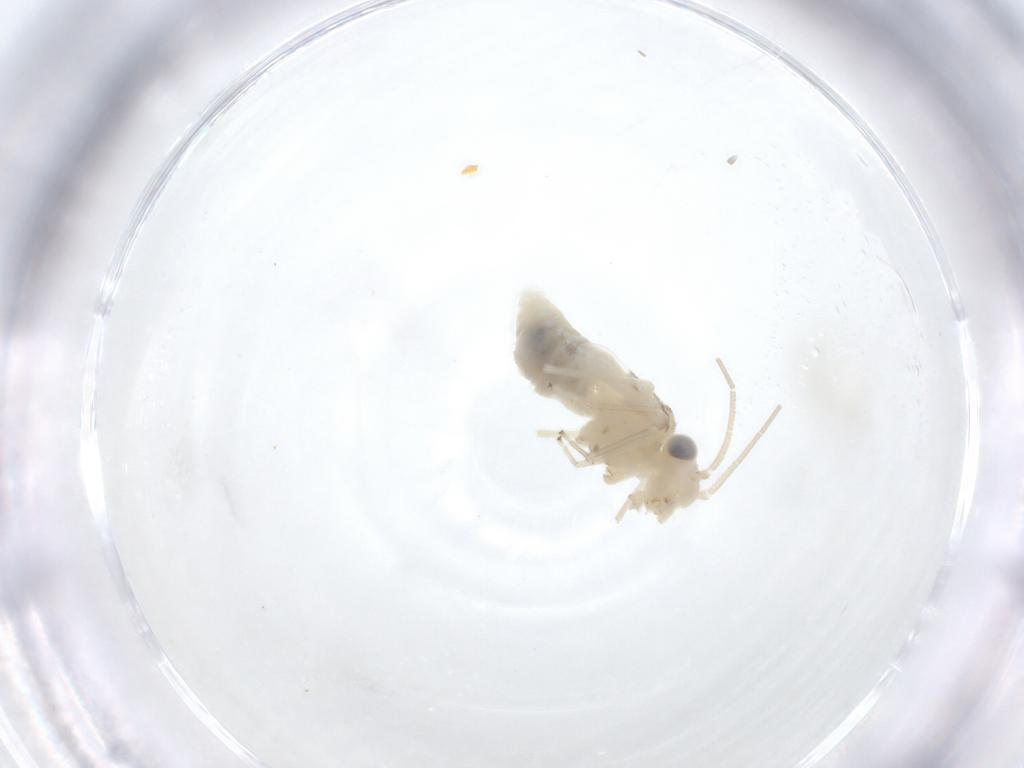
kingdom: Animalia
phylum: Arthropoda
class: Insecta
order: Psocodea
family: Caeciliusidae
